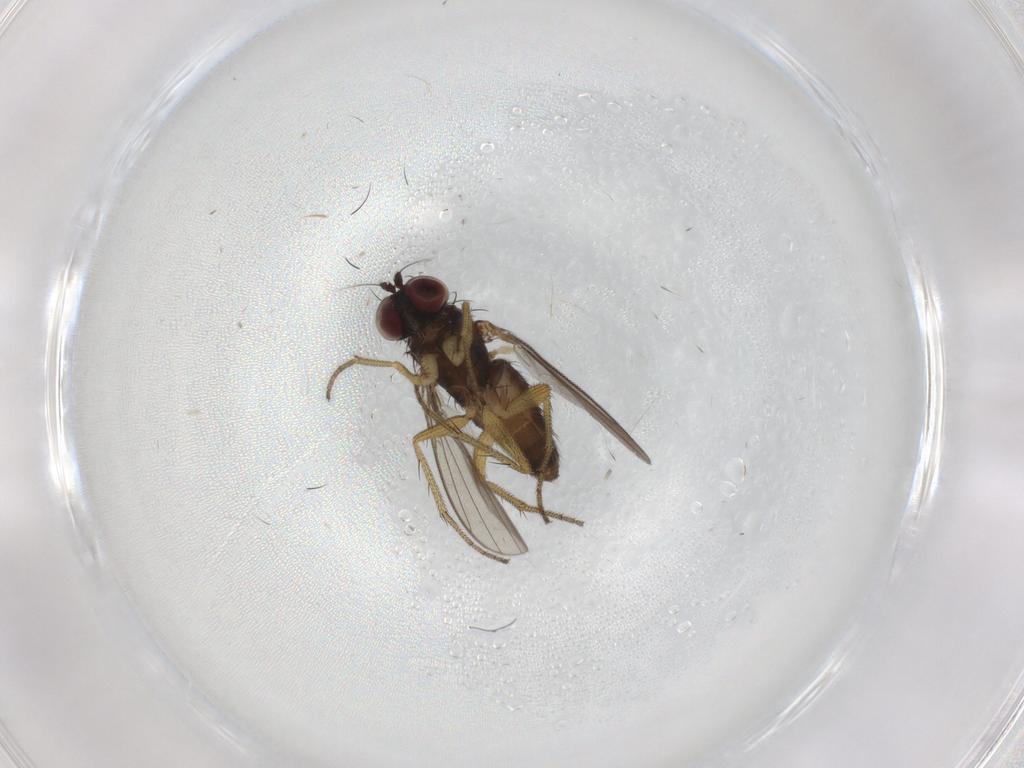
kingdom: Animalia
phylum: Arthropoda
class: Insecta
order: Diptera
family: Dolichopodidae
